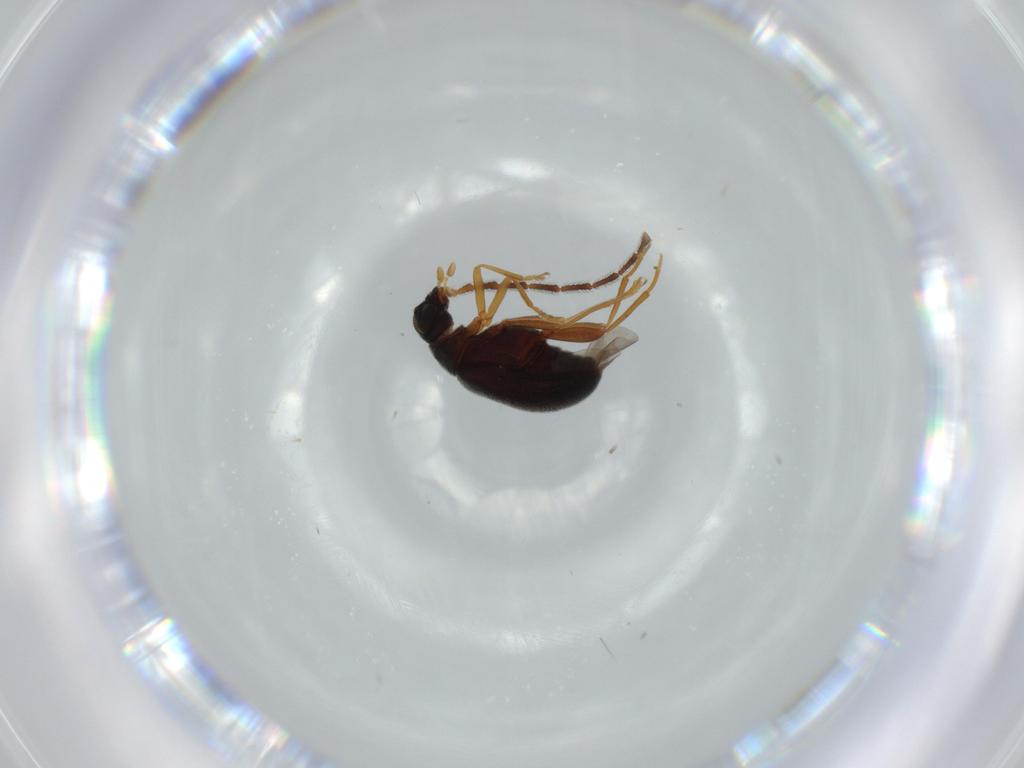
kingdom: Animalia
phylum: Arthropoda
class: Insecta
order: Coleoptera
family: Aderidae
